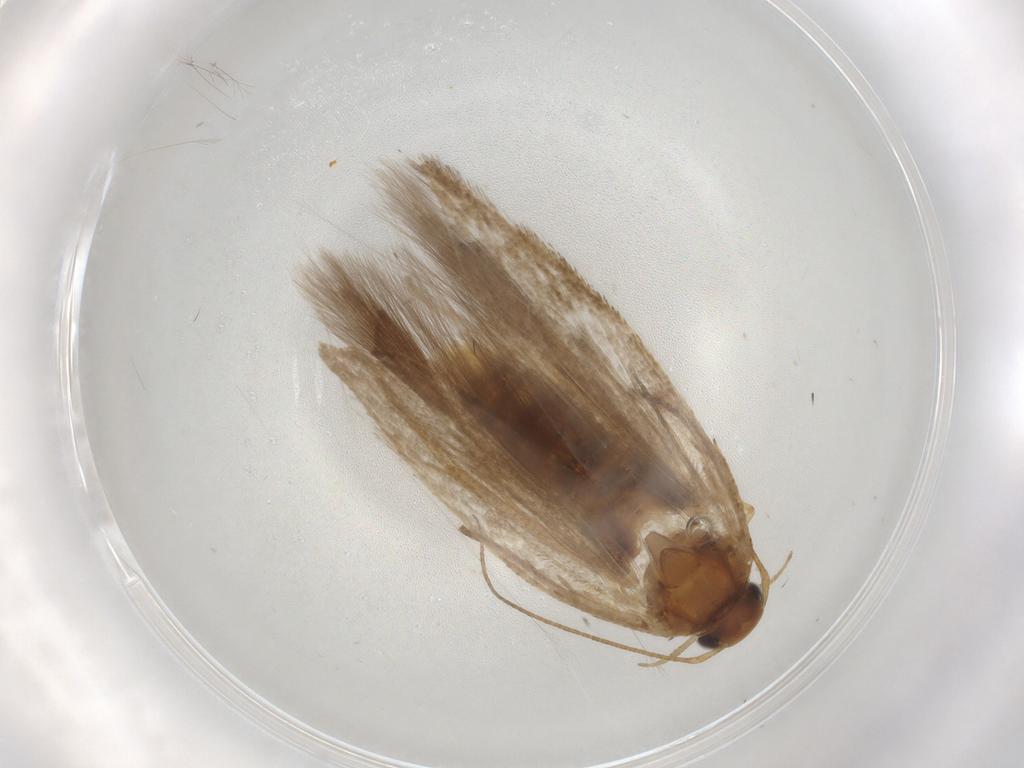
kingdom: Animalia
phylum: Arthropoda
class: Insecta
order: Lepidoptera
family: Gelechiidae
